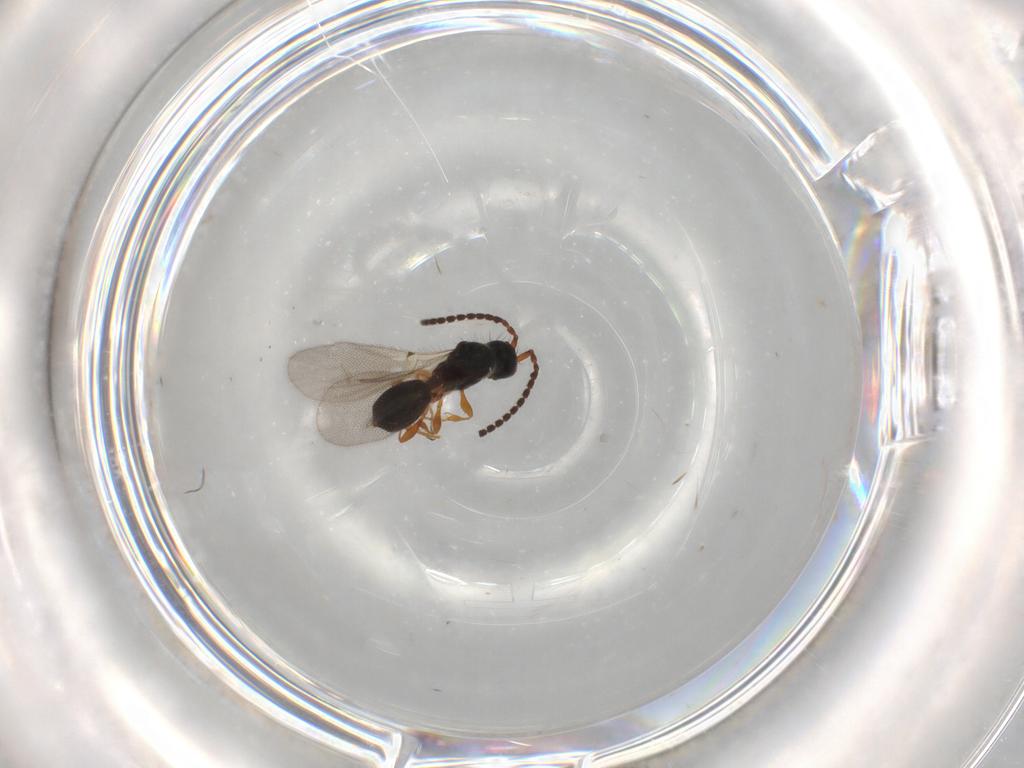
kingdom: Animalia
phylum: Arthropoda
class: Insecta
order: Hymenoptera
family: Diapriidae
